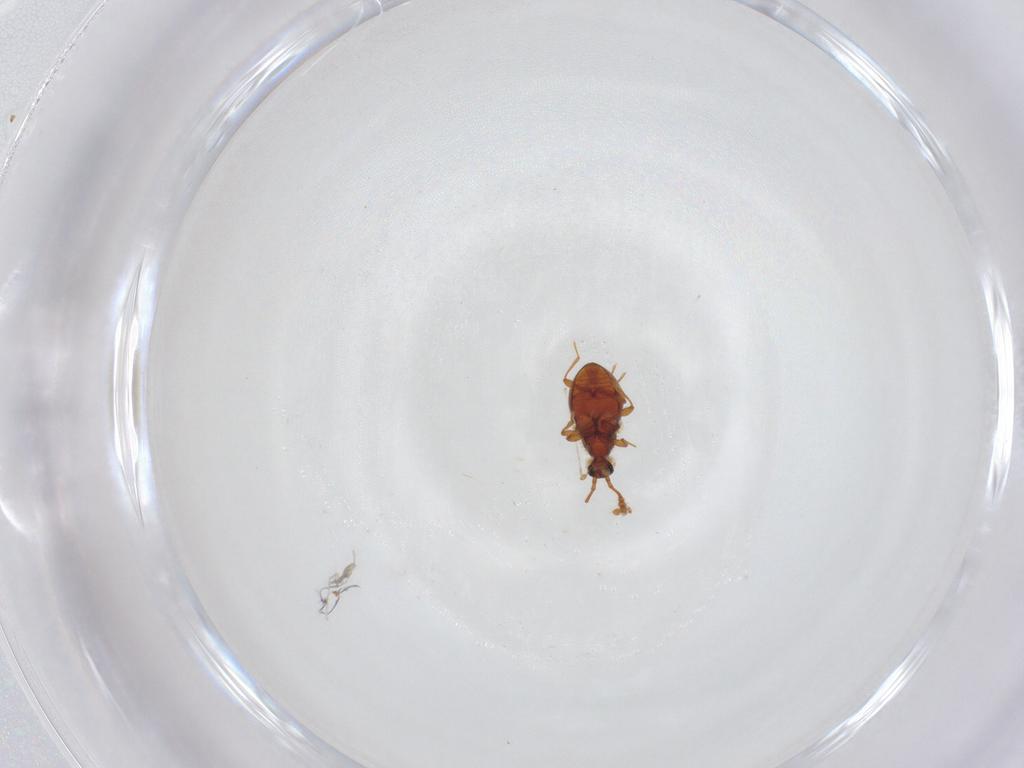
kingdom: Animalia
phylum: Arthropoda
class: Insecta
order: Coleoptera
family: Staphylinidae
